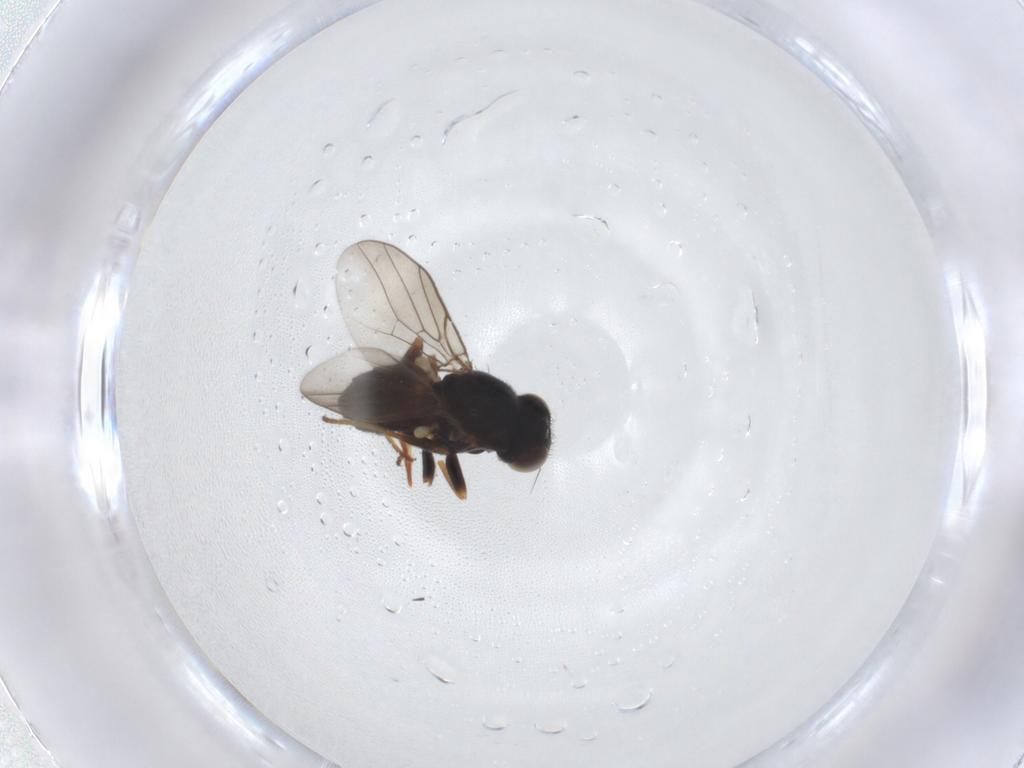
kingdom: Animalia
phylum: Arthropoda
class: Insecta
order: Diptera
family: Chloropidae
